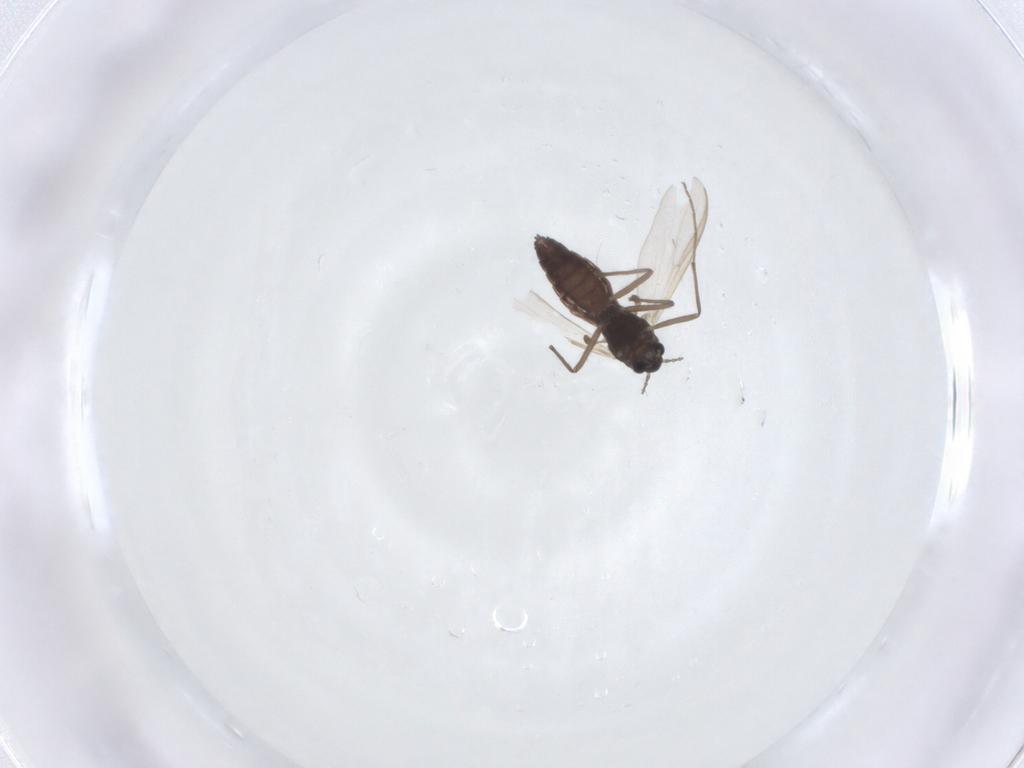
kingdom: Animalia
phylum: Arthropoda
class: Insecta
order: Diptera
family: Chironomidae
